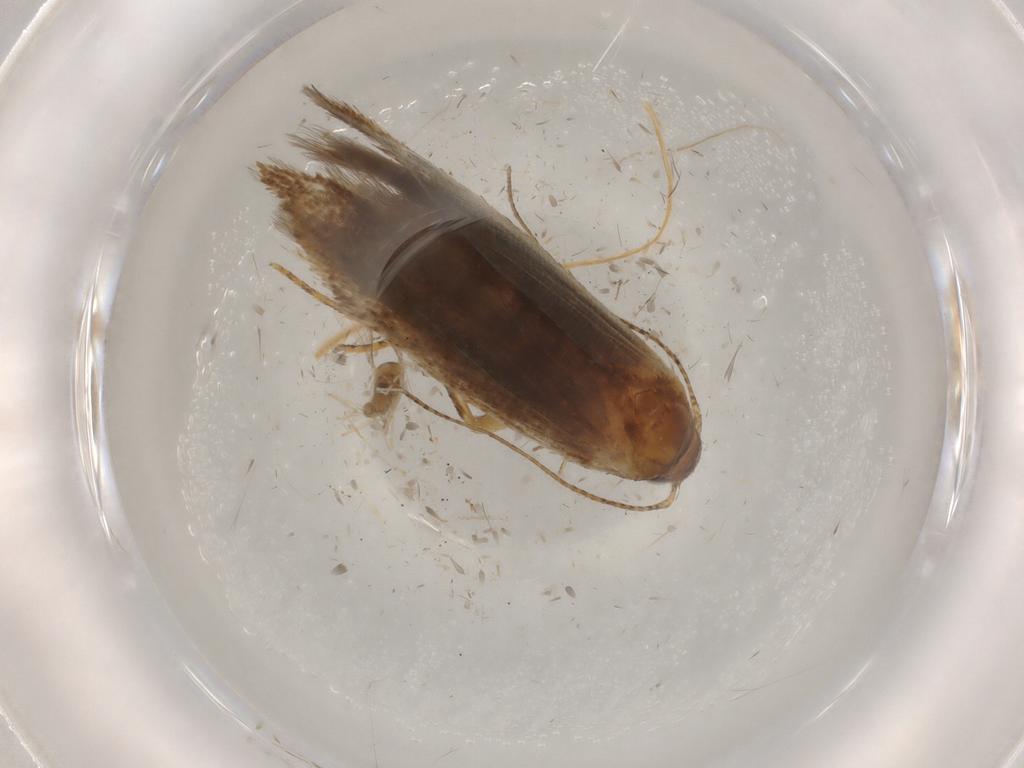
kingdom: Animalia
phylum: Arthropoda
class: Insecta
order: Lepidoptera
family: Gelechiidae
